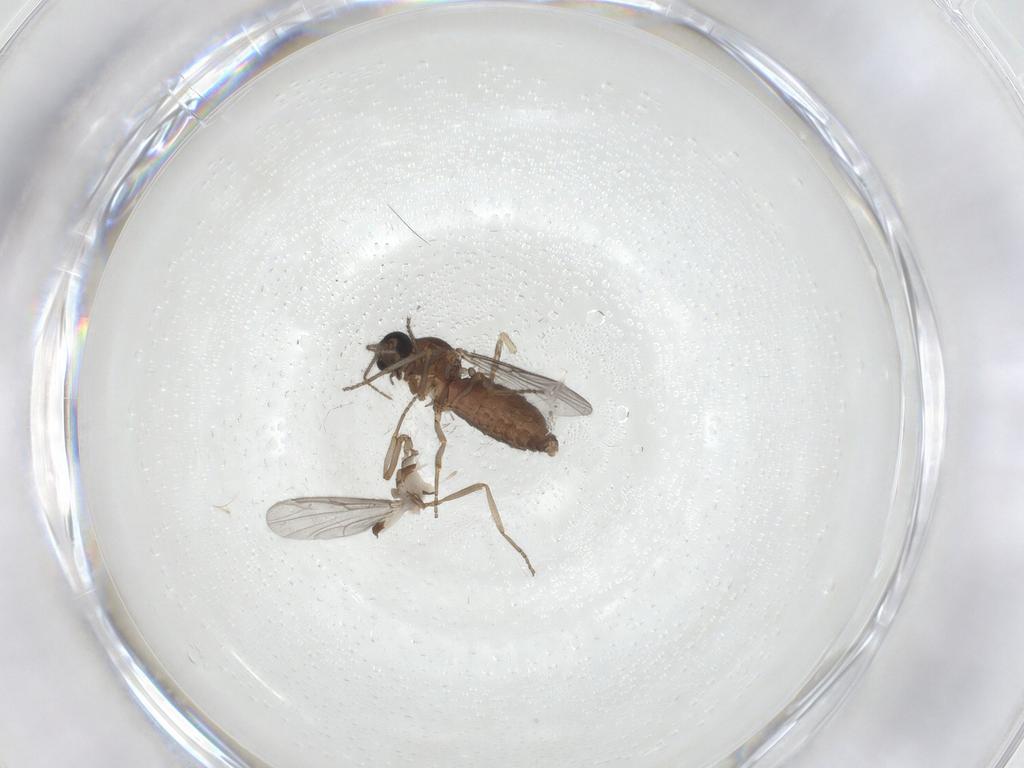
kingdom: Animalia
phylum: Arthropoda
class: Insecta
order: Diptera
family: Ceratopogonidae
